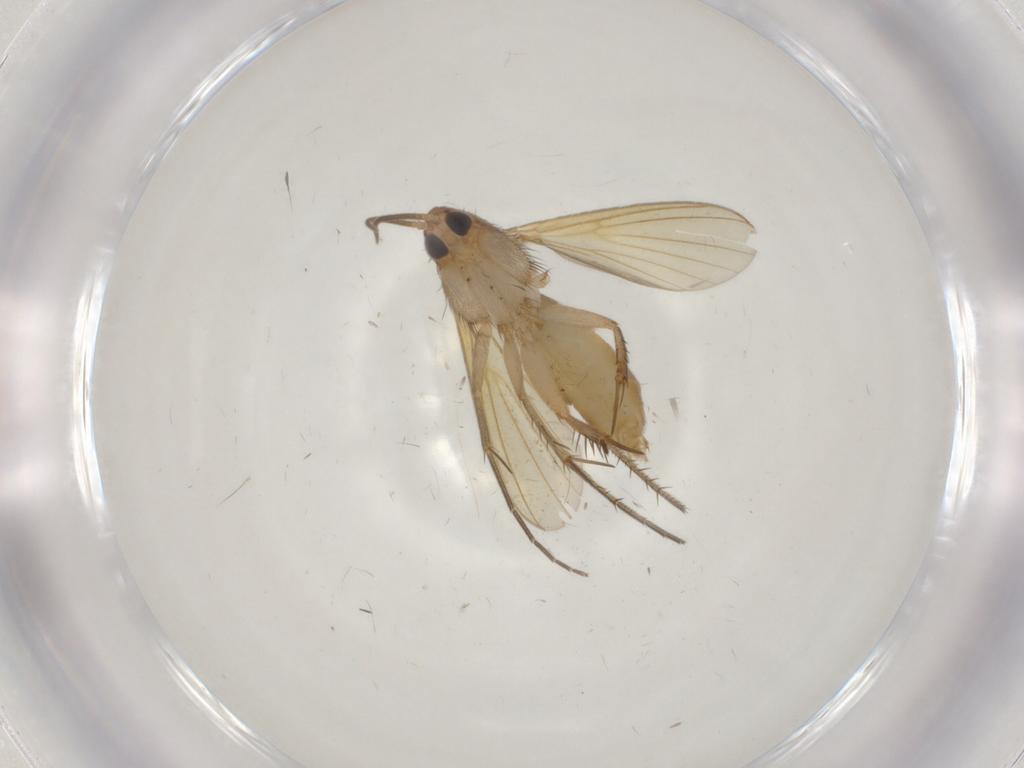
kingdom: Animalia
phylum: Arthropoda
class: Insecta
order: Diptera
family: Mycetophilidae
